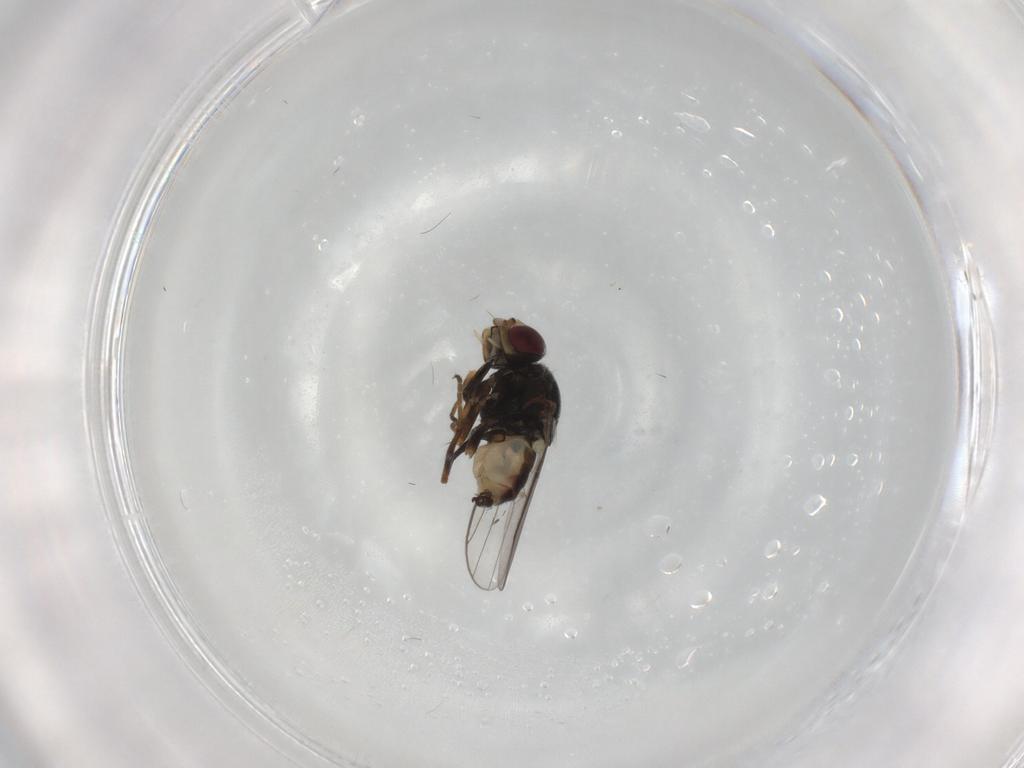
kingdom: Animalia
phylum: Arthropoda
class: Insecta
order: Diptera
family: Chloropidae
